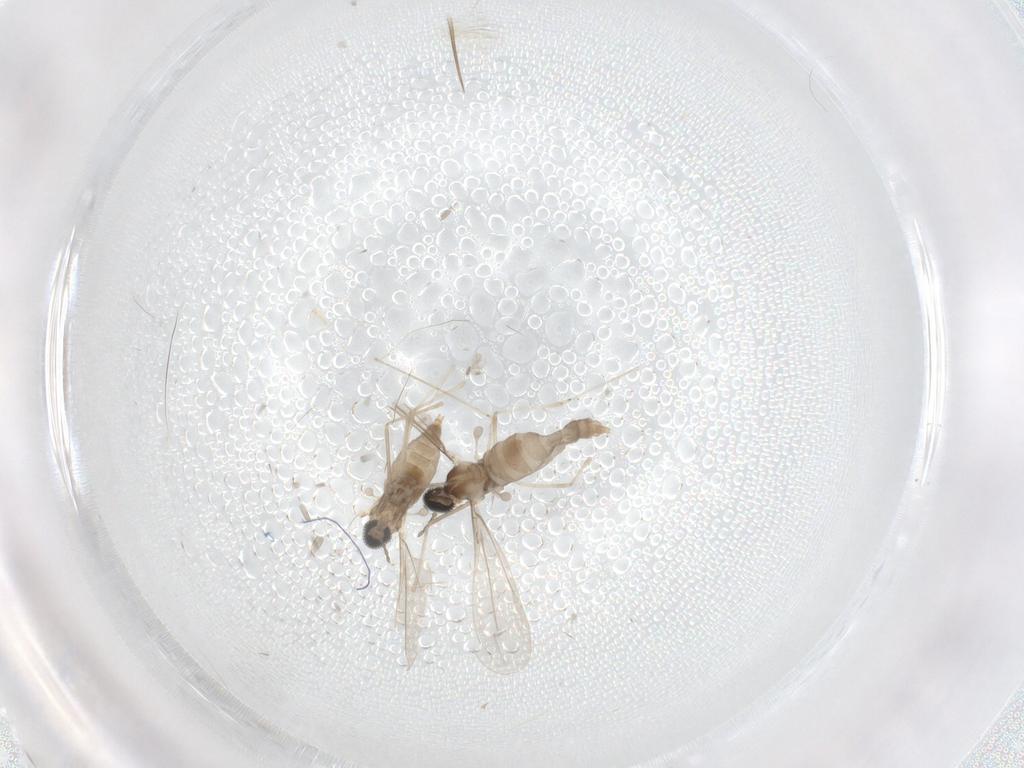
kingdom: Animalia
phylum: Arthropoda
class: Insecta
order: Diptera
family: Cecidomyiidae
